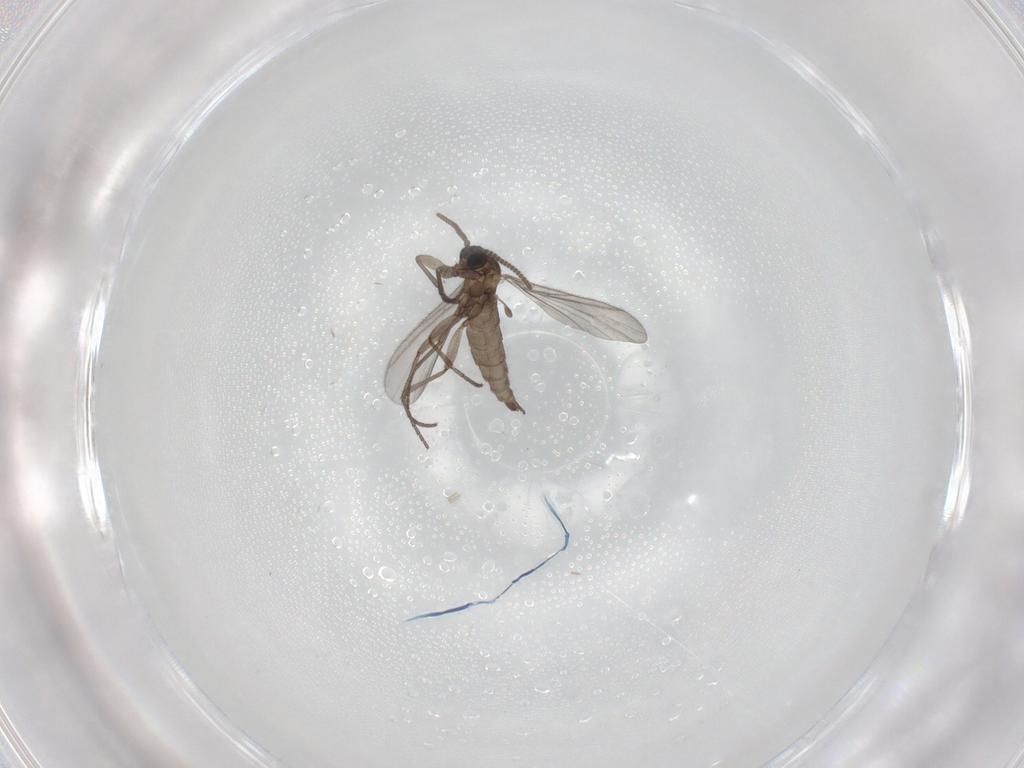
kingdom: Animalia
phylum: Arthropoda
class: Insecta
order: Diptera
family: Sciaridae
